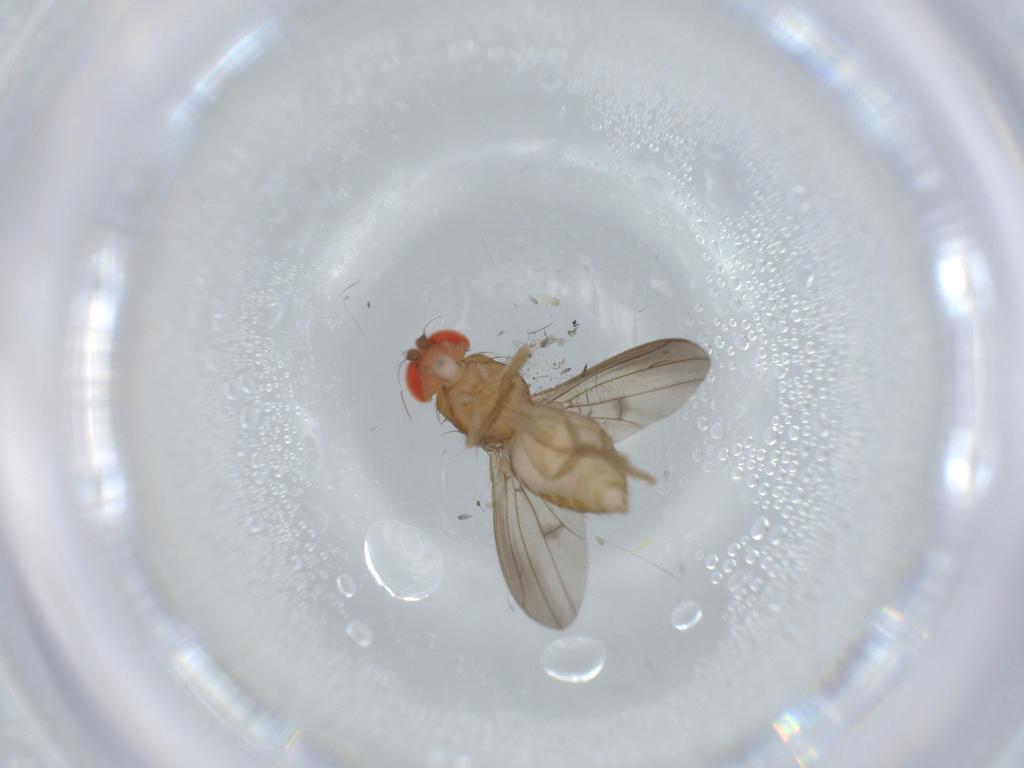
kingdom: Animalia
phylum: Arthropoda
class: Insecta
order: Diptera
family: Drosophilidae
